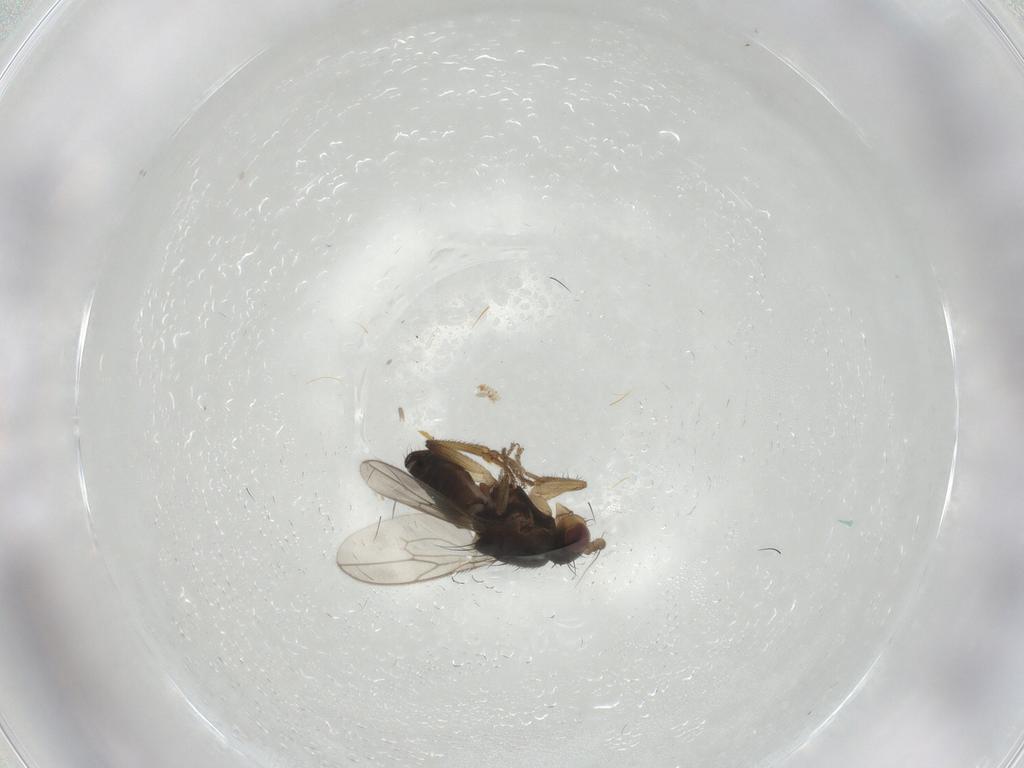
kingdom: Animalia
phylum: Arthropoda
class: Insecta
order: Diptera
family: Sphaeroceridae
